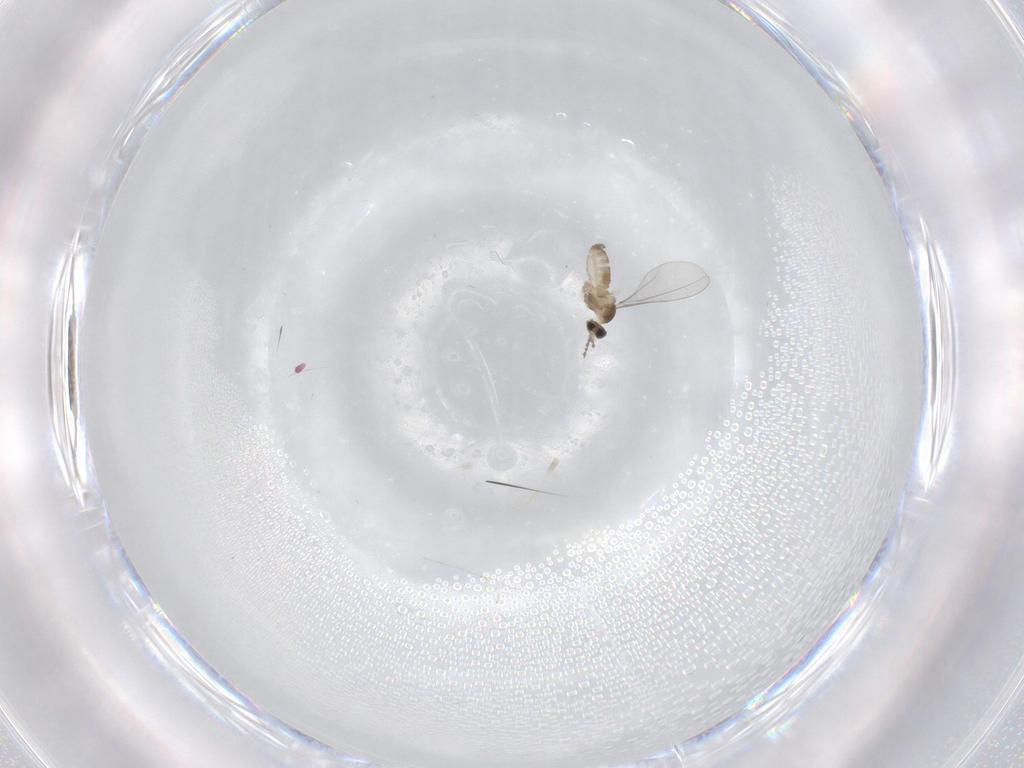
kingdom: Animalia
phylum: Arthropoda
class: Insecta
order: Diptera
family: Cecidomyiidae
